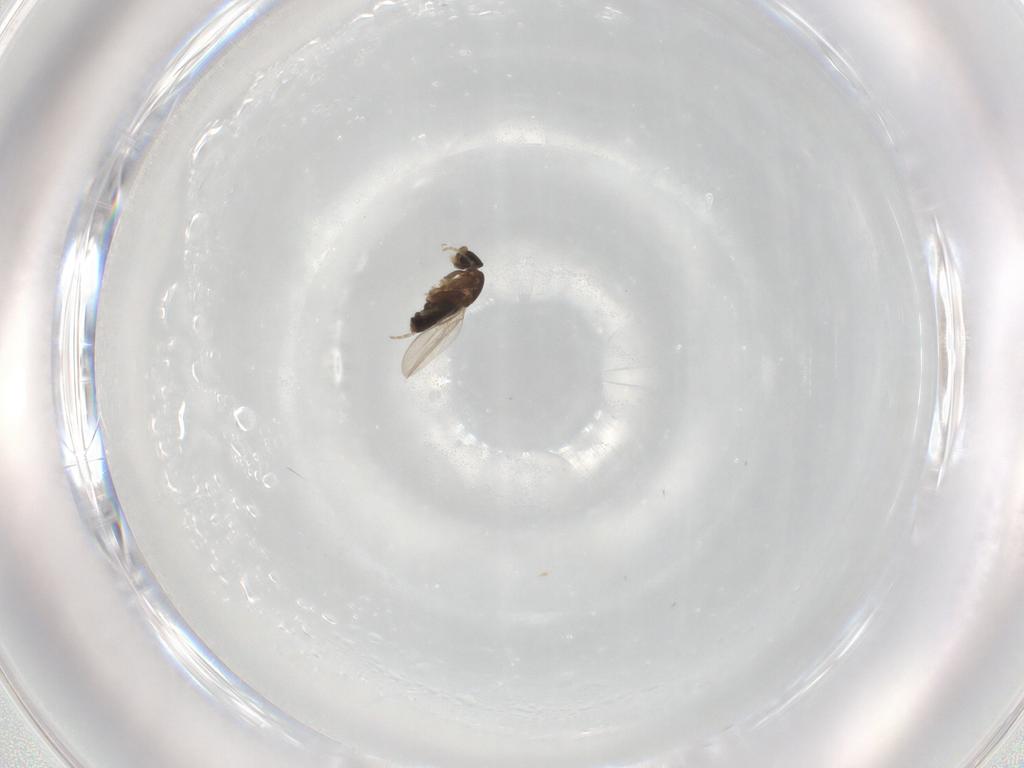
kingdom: Animalia
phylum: Arthropoda
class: Insecta
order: Diptera
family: Phoridae
